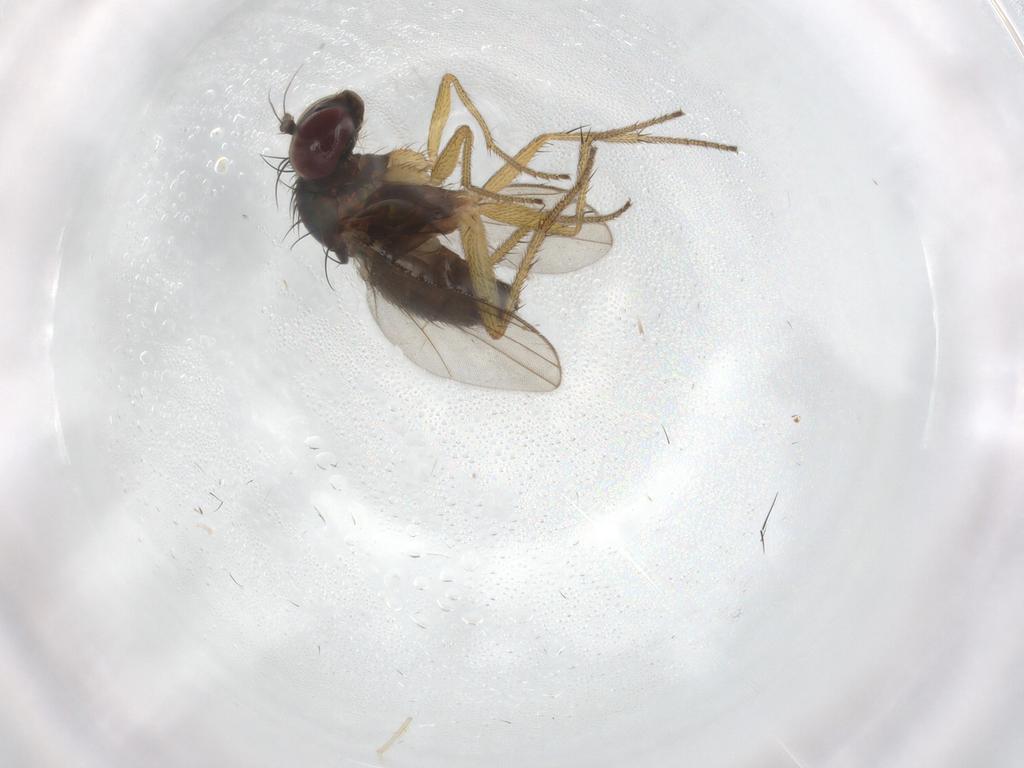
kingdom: Animalia
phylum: Arthropoda
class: Insecta
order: Diptera
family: Chironomidae
